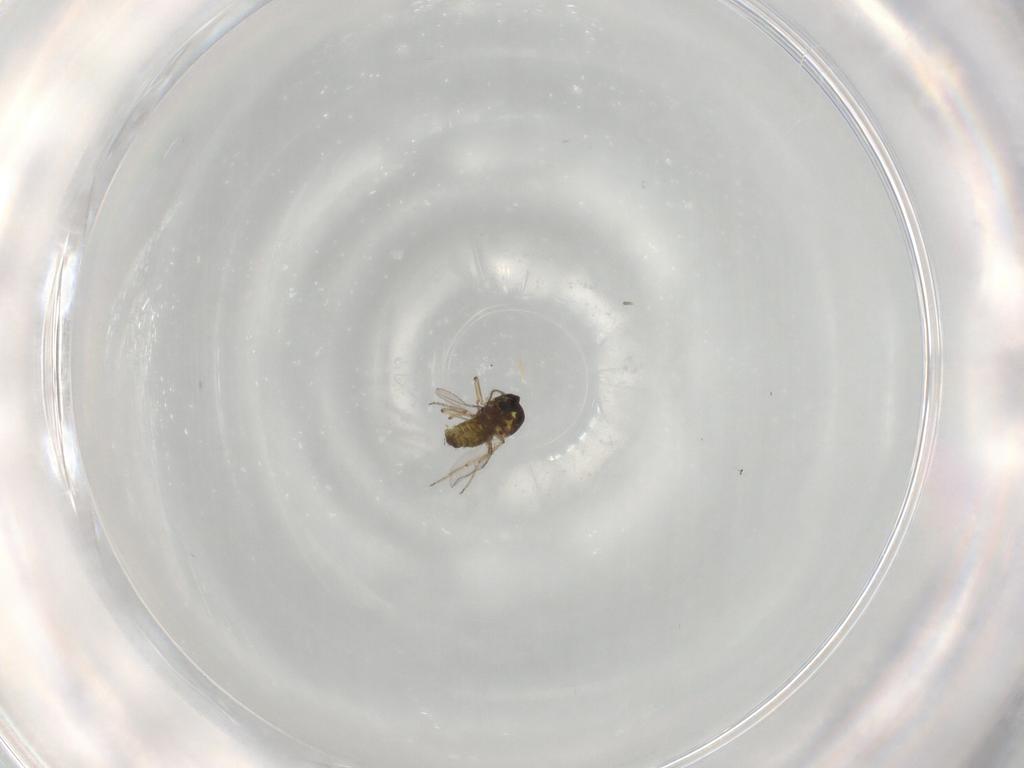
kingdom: Animalia
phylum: Arthropoda
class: Insecta
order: Diptera
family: Ceratopogonidae
